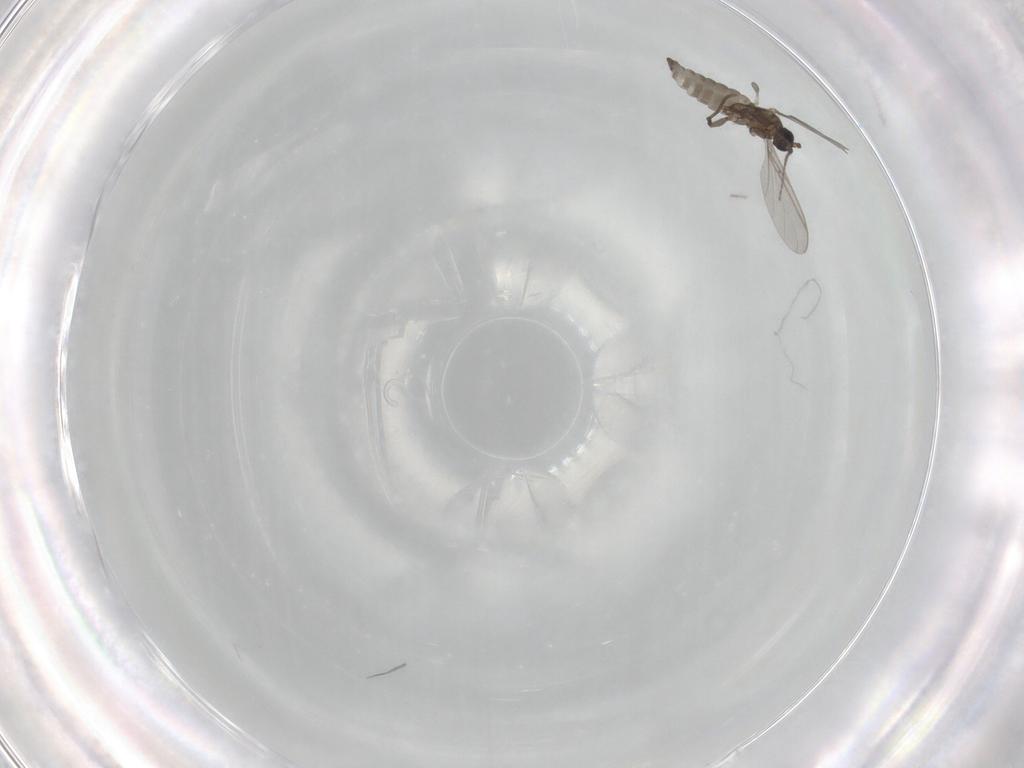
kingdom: Animalia
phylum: Arthropoda
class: Insecta
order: Diptera
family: Sciaridae
